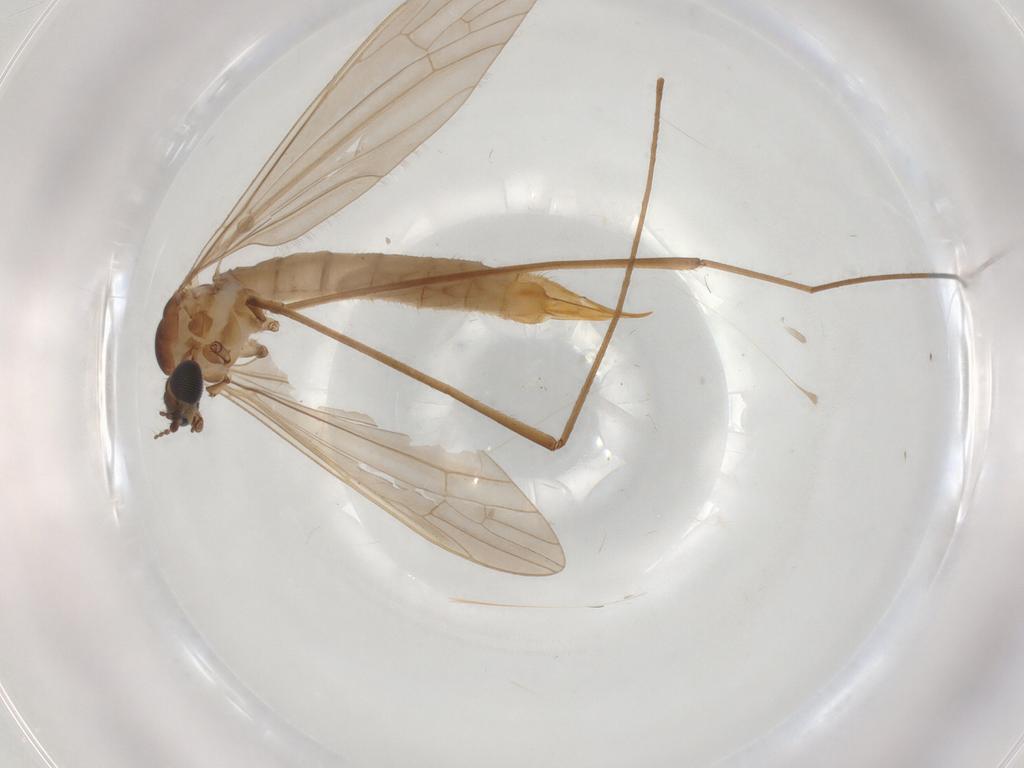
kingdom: Animalia
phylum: Arthropoda
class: Insecta
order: Diptera
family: Limoniidae
